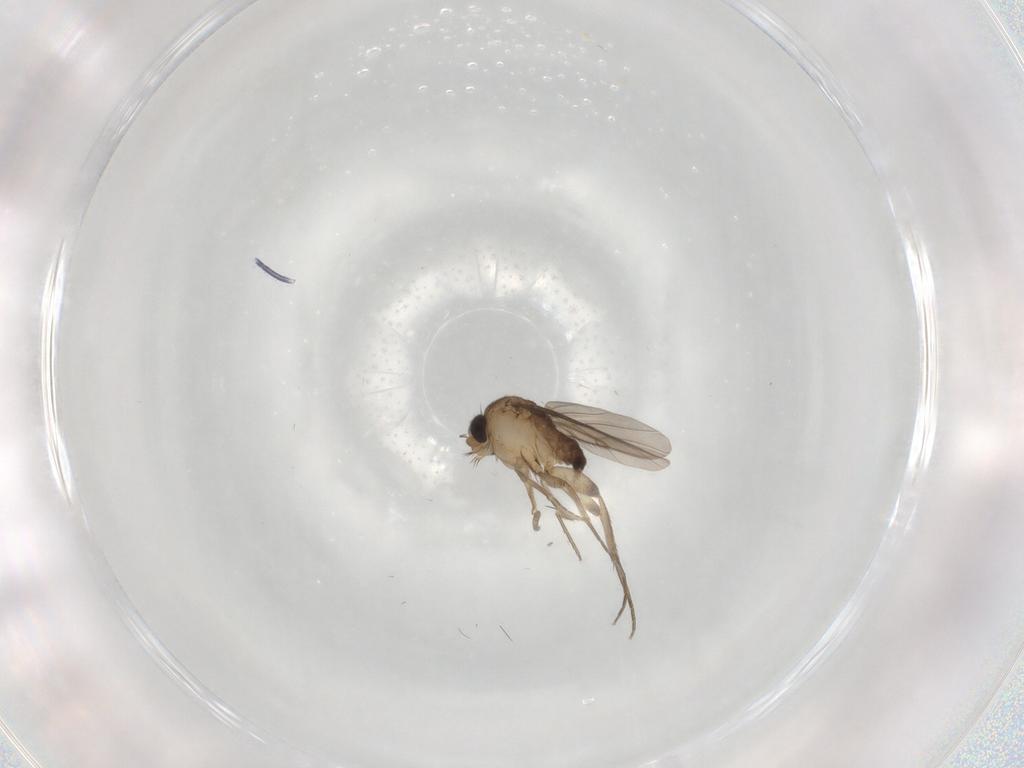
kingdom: Animalia
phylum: Arthropoda
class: Insecta
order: Diptera
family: Phoridae
